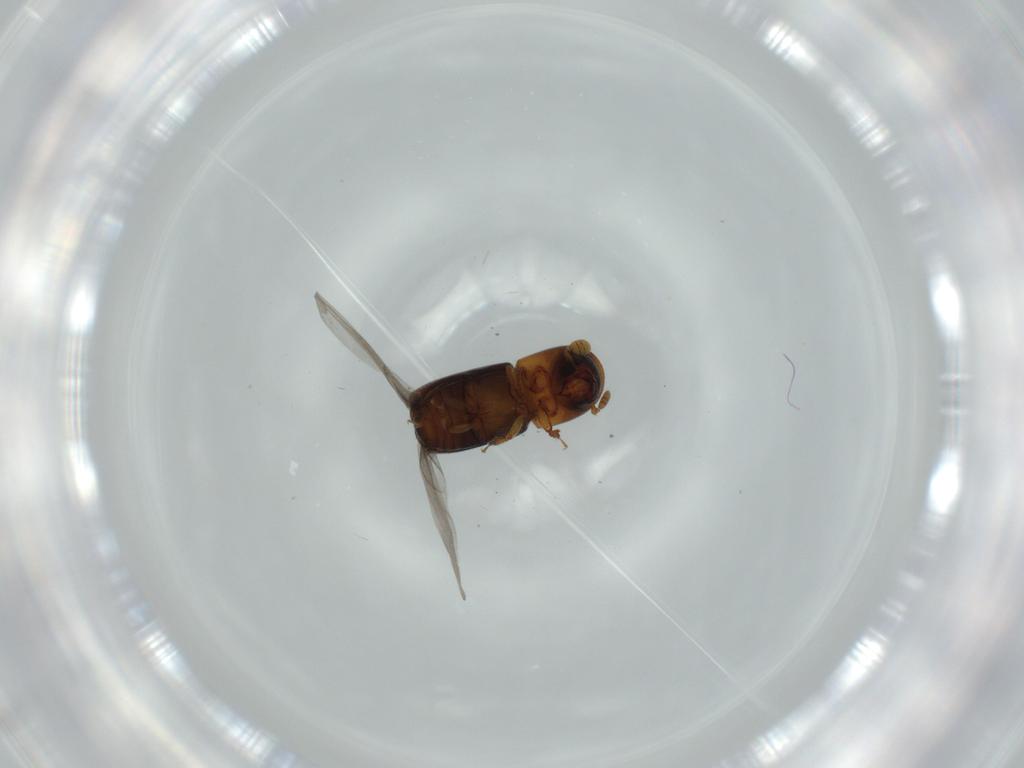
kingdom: Animalia
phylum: Arthropoda
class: Insecta
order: Coleoptera
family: Curculionidae
